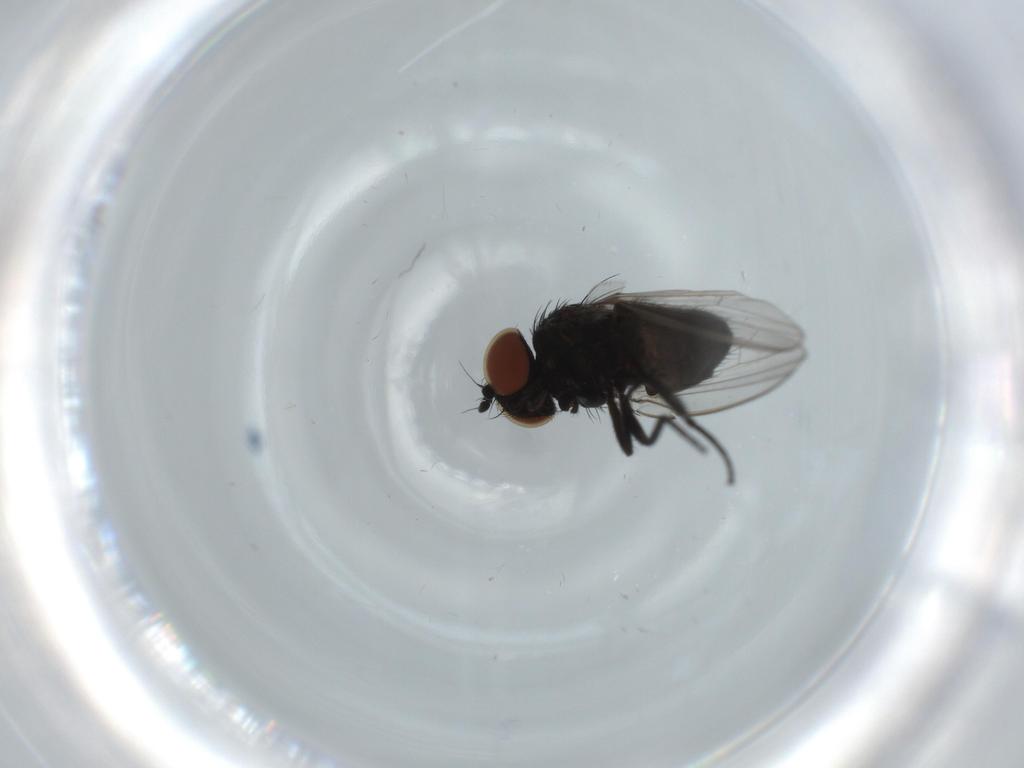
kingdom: Animalia
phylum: Arthropoda
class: Insecta
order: Diptera
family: Milichiidae
